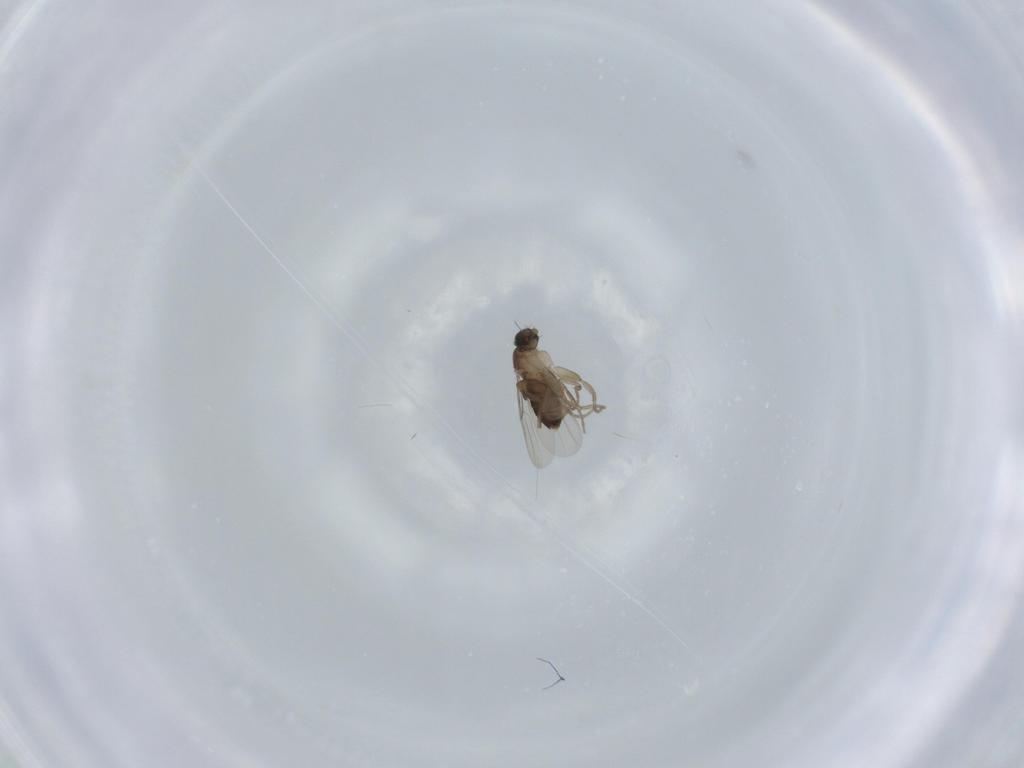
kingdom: Animalia
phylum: Arthropoda
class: Insecta
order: Diptera
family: Phoridae
